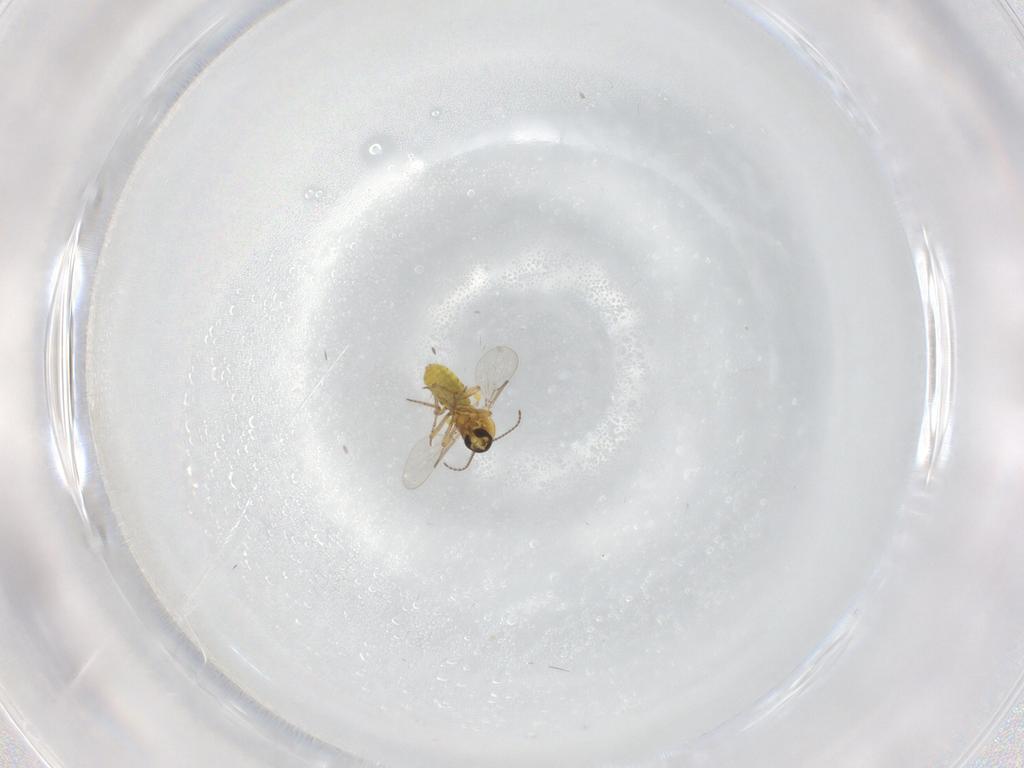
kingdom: Animalia
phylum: Arthropoda
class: Insecta
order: Diptera
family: Ceratopogonidae
